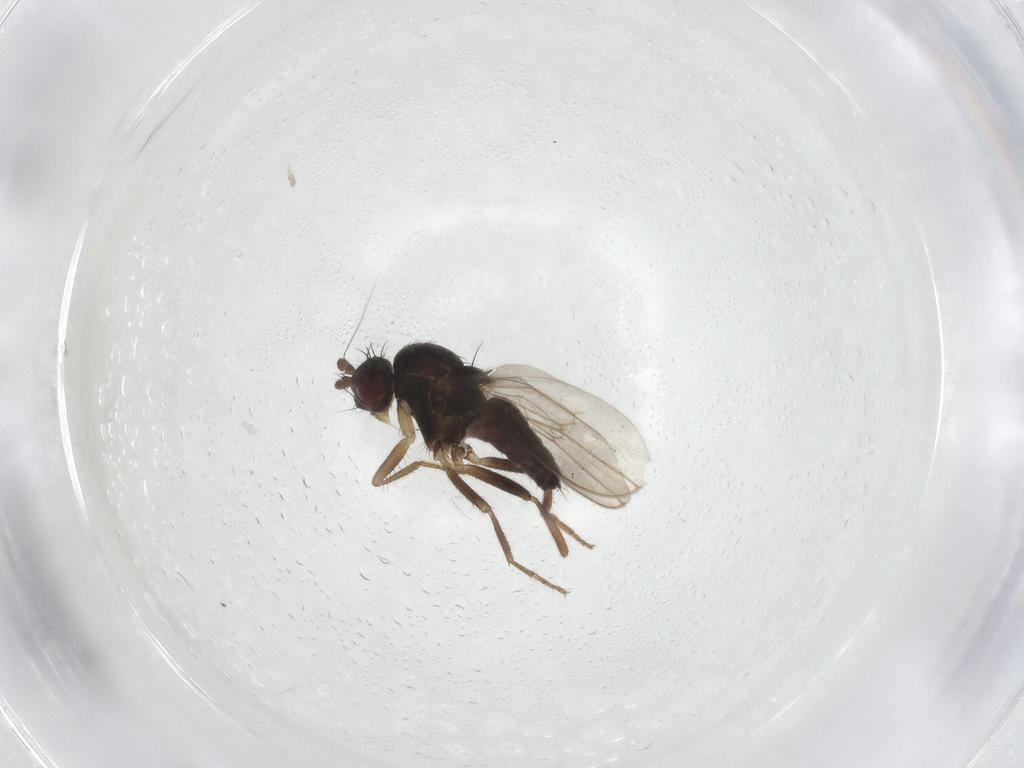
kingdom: Animalia
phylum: Arthropoda
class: Insecta
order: Diptera
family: Sphaeroceridae
